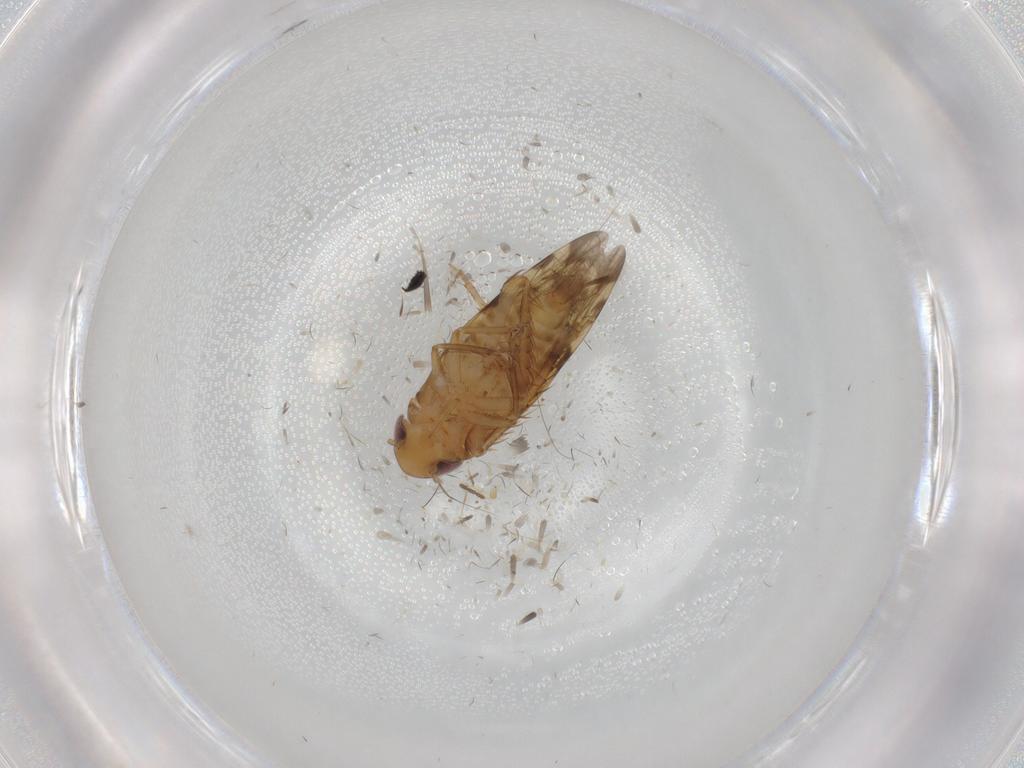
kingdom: Animalia
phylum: Arthropoda
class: Insecta
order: Hemiptera
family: Cicadellidae
